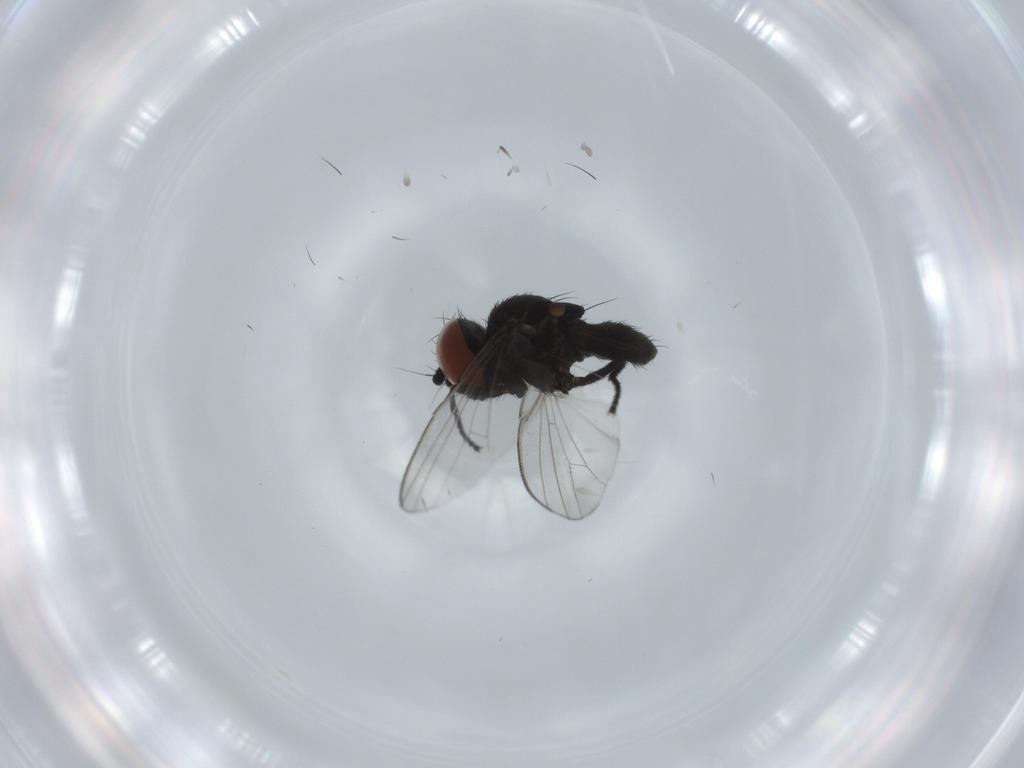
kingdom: Animalia
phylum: Arthropoda
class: Insecta
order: Diptera
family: Milichiidae
